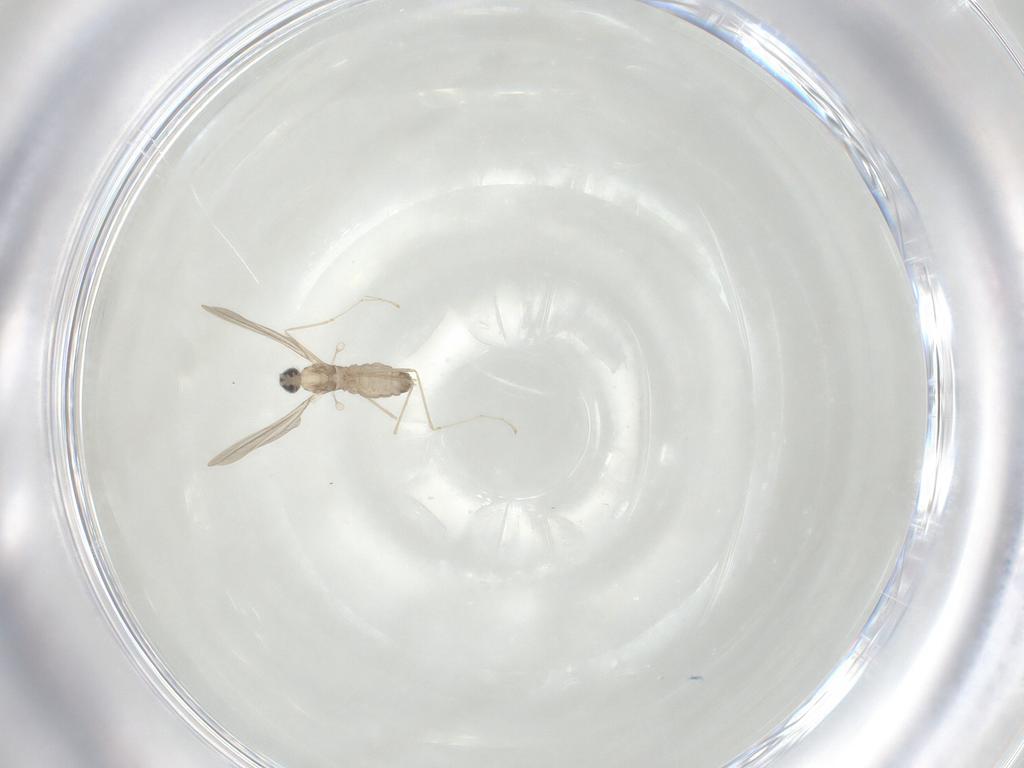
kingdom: Animalia
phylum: Arthropoda
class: Insecta
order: Diptera
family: Cecidomyiidae
